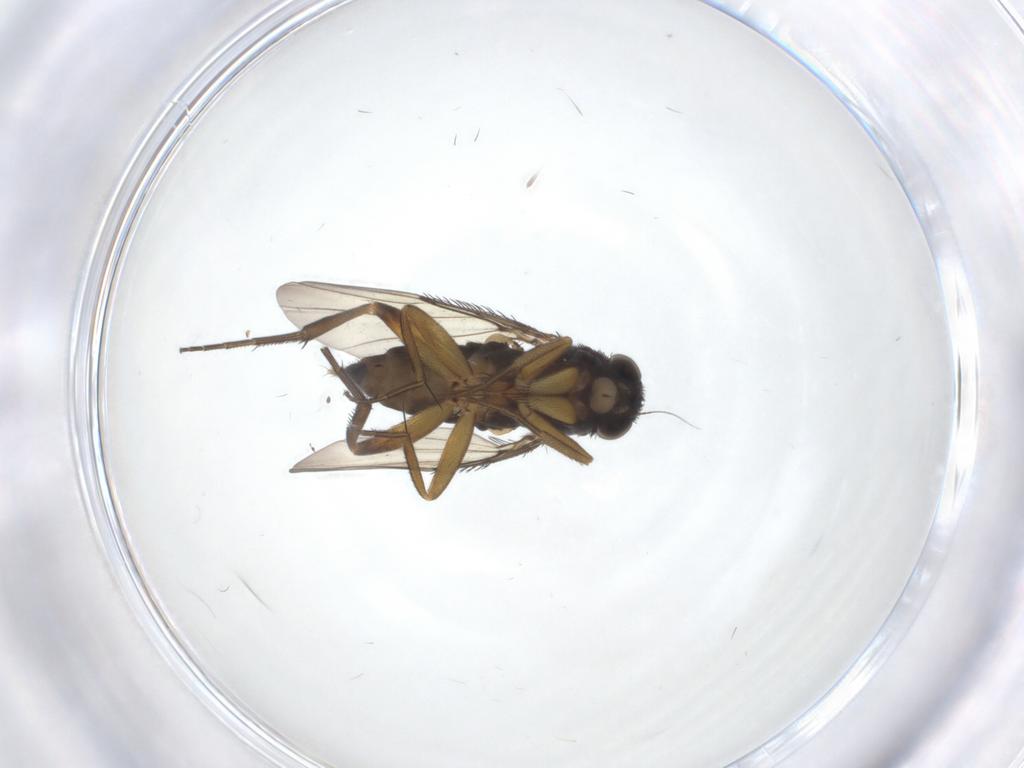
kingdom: Animalia
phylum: Arthropoda
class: Insecta
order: Diptera
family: Phoridae
